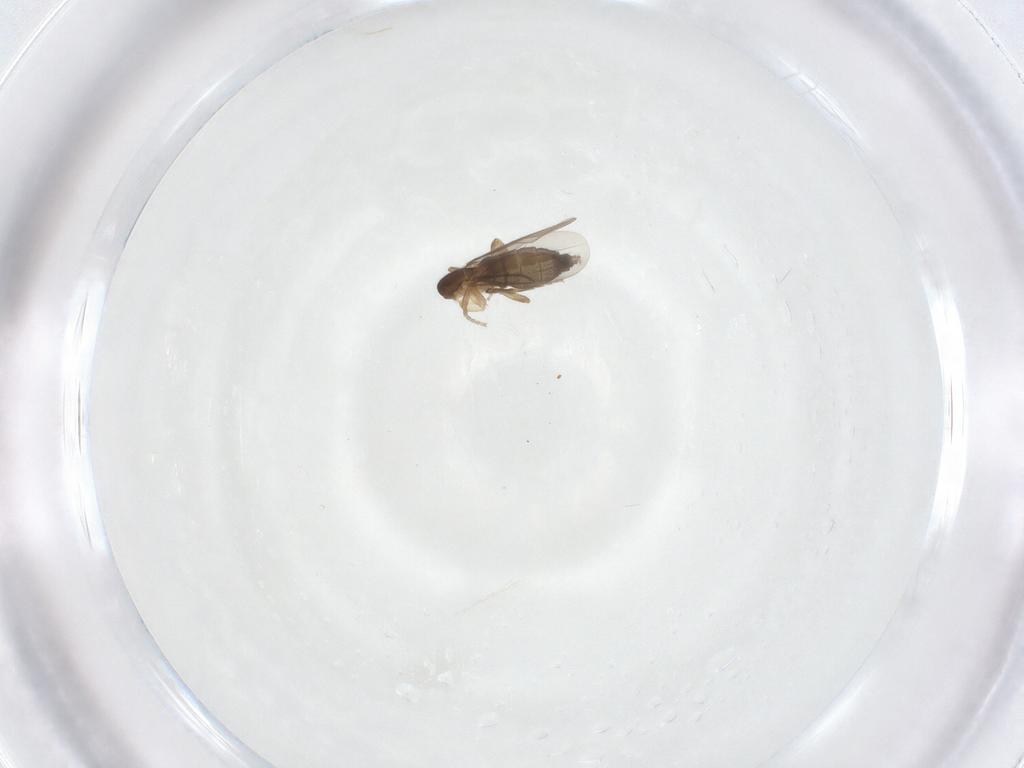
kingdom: Animalia
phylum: Arthropoda
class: Insecta
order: Diptera
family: Phoridae
